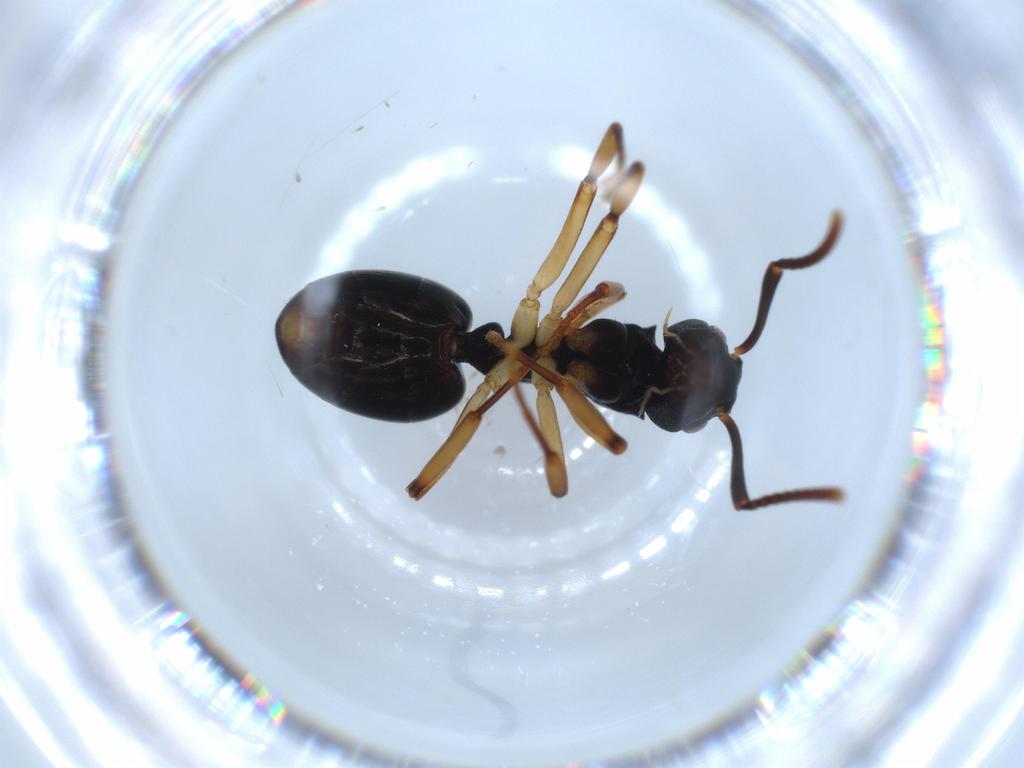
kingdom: Animalia
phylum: Arthropoda
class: Insecta
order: Hymenoptera
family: Formicidae
